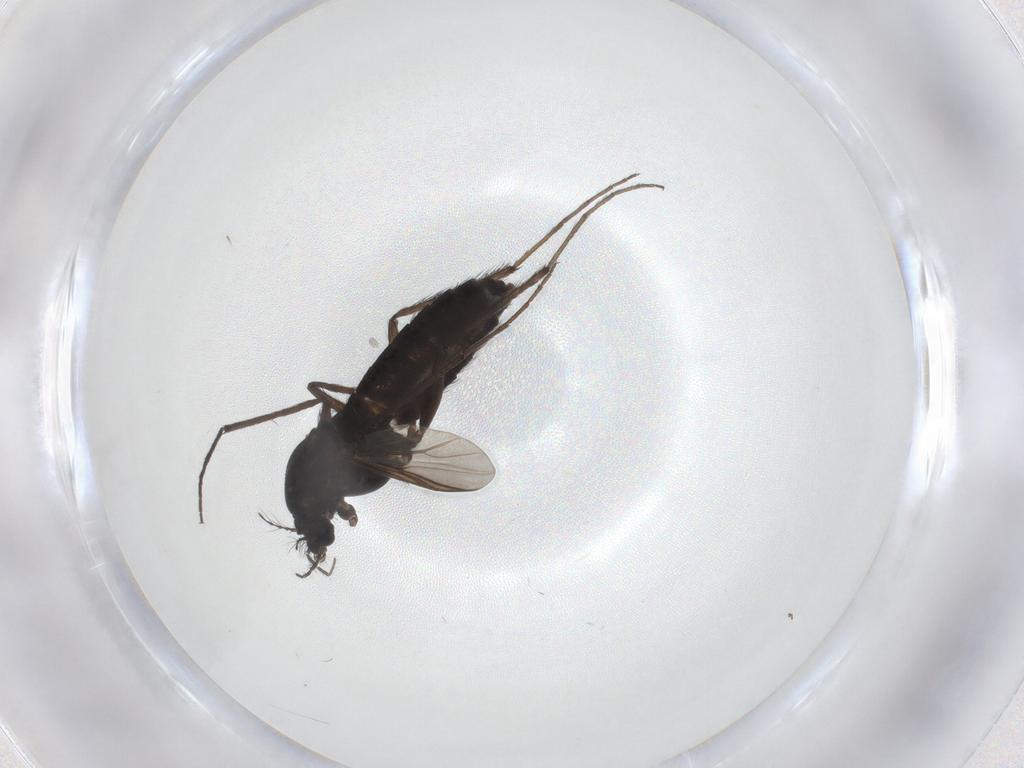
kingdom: Animalia
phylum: Arthropoda
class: Insecta
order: Diptera
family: Chironomidae
